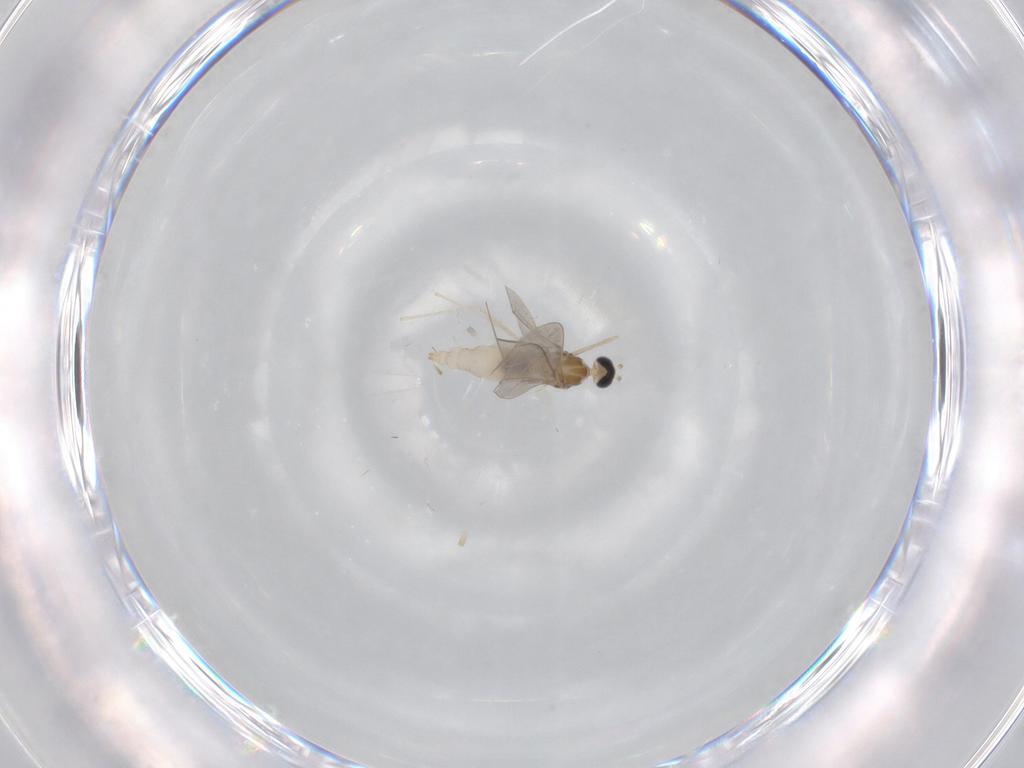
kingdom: Animalia
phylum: Arthropoda
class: Insecta
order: Diptera
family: Cecidomyiidae
